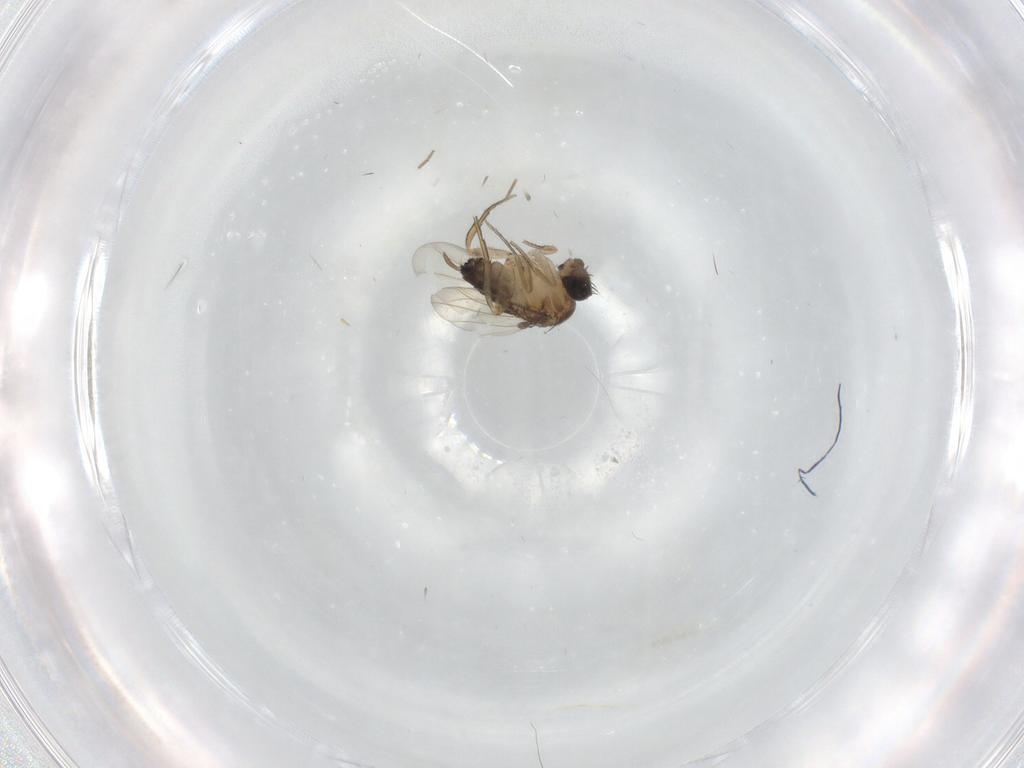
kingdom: Animalia
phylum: Arthropoda
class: Insecta
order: Diptera
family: Phoridae
